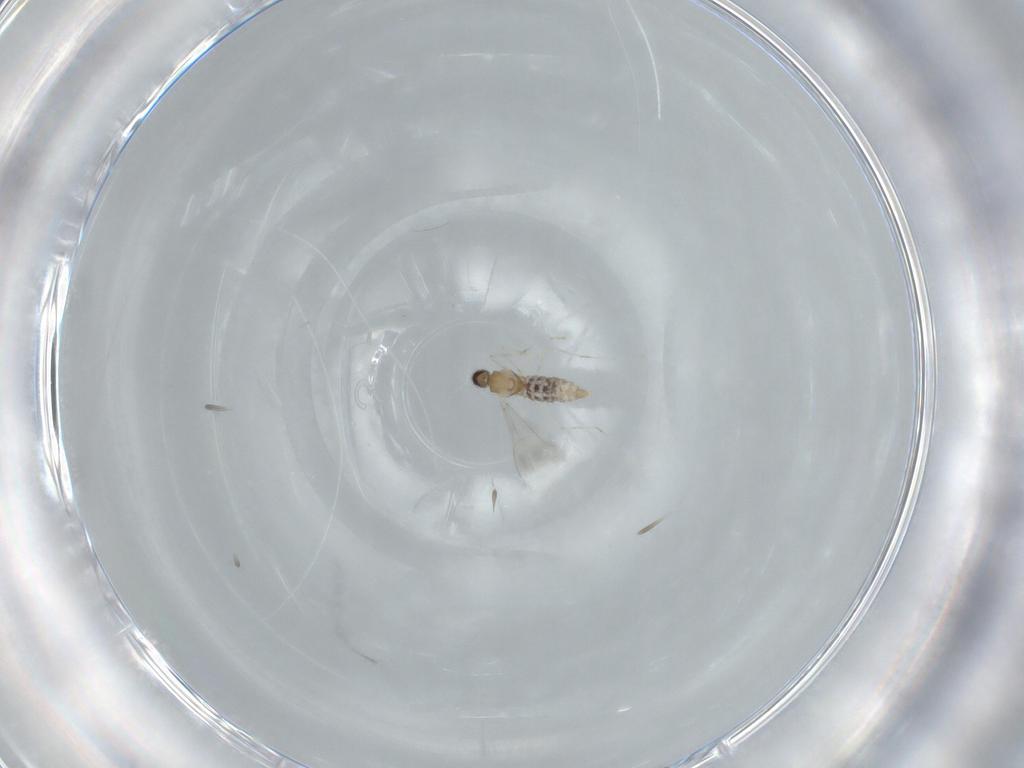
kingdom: Animalia
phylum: Arthropoda
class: Insecta
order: Diptera
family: Cecidomyiidae
